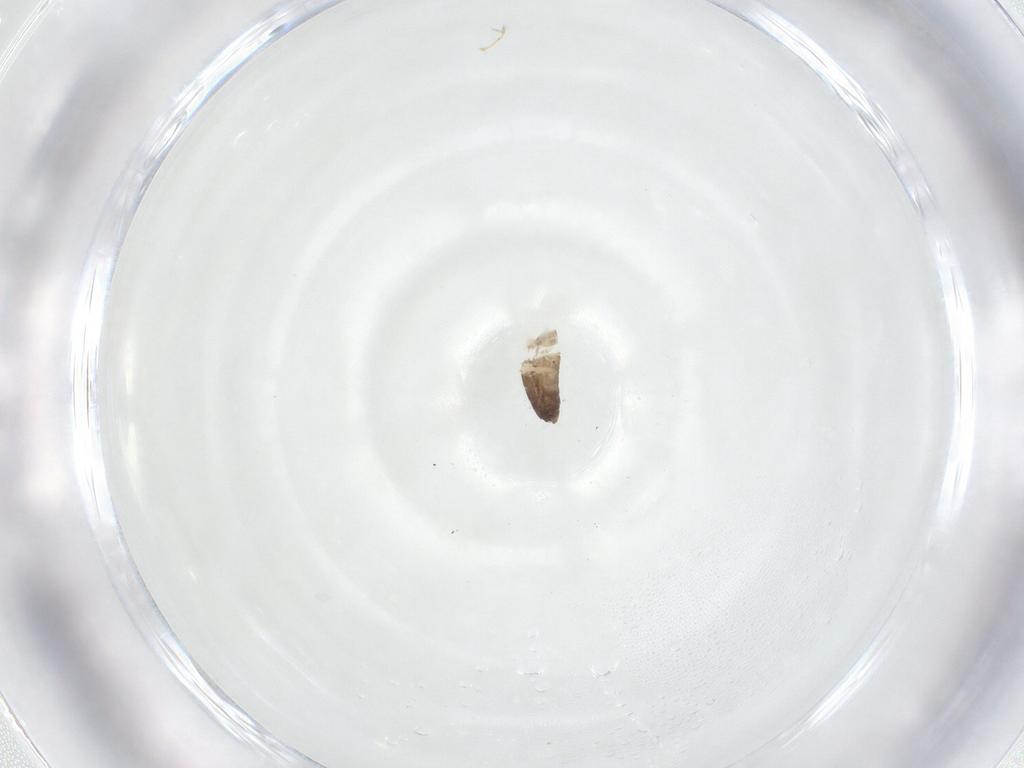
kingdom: Animalia
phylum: Arthropoda
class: Insecta
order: Diptera
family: Chironomidae
